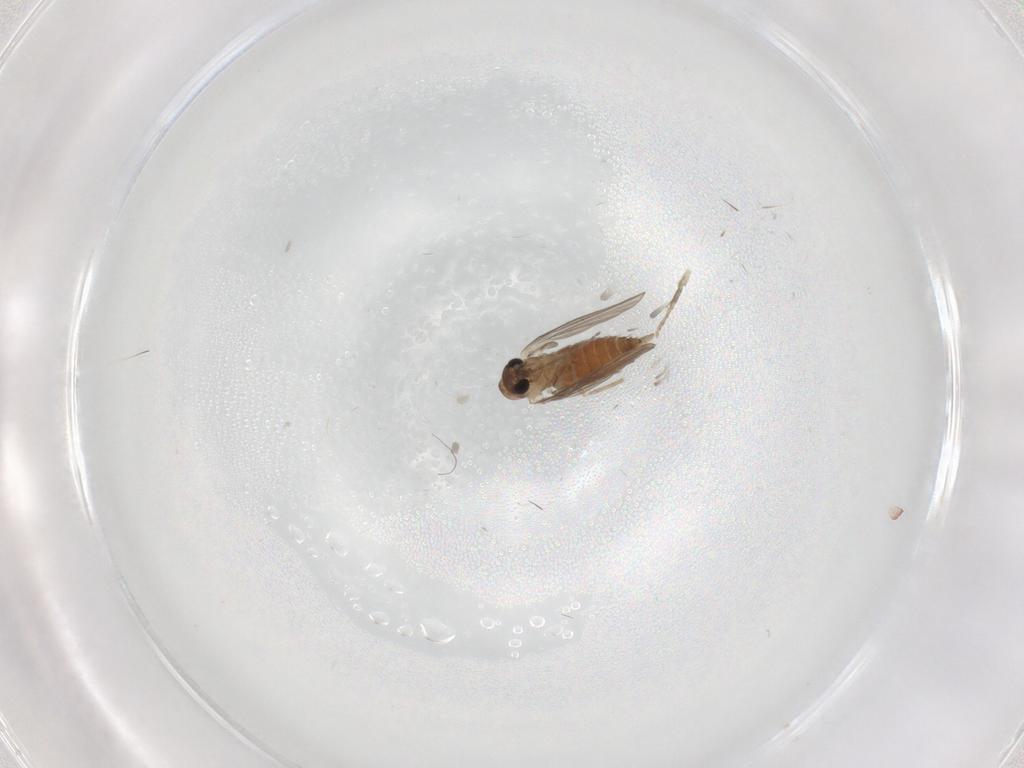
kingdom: Animalia
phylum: Arthropoda
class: Insecta
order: Diptera
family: Psychodidae
